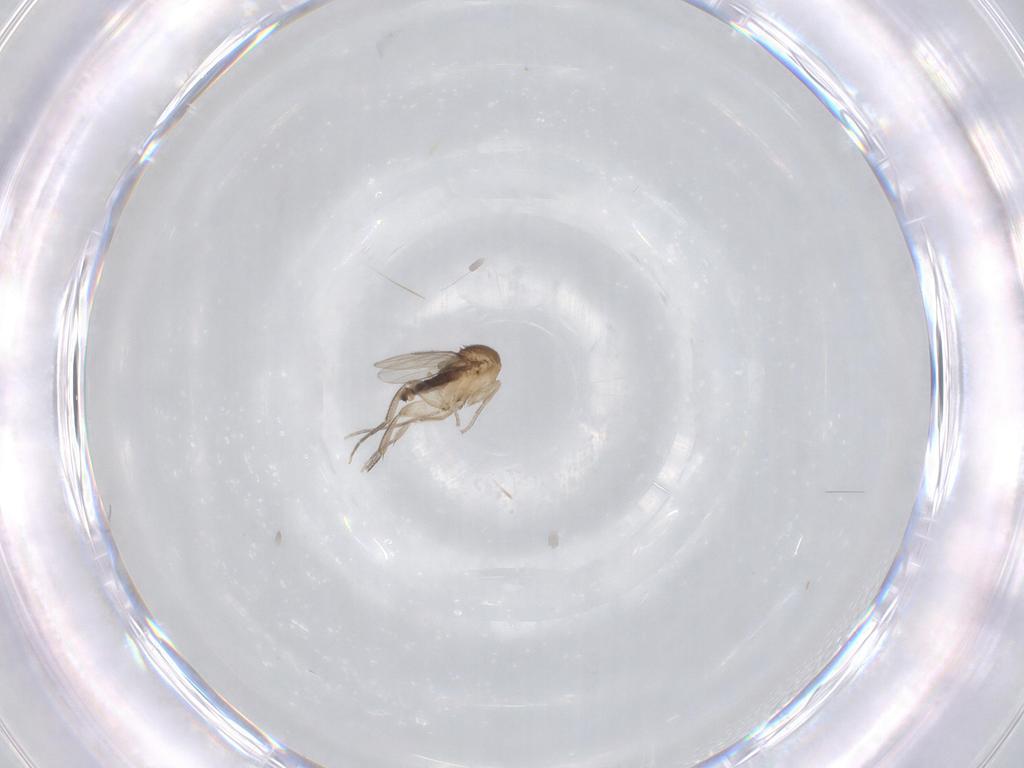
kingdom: Animalia
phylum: Arthropoda
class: Insecta
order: Diptera
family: Phoridae
